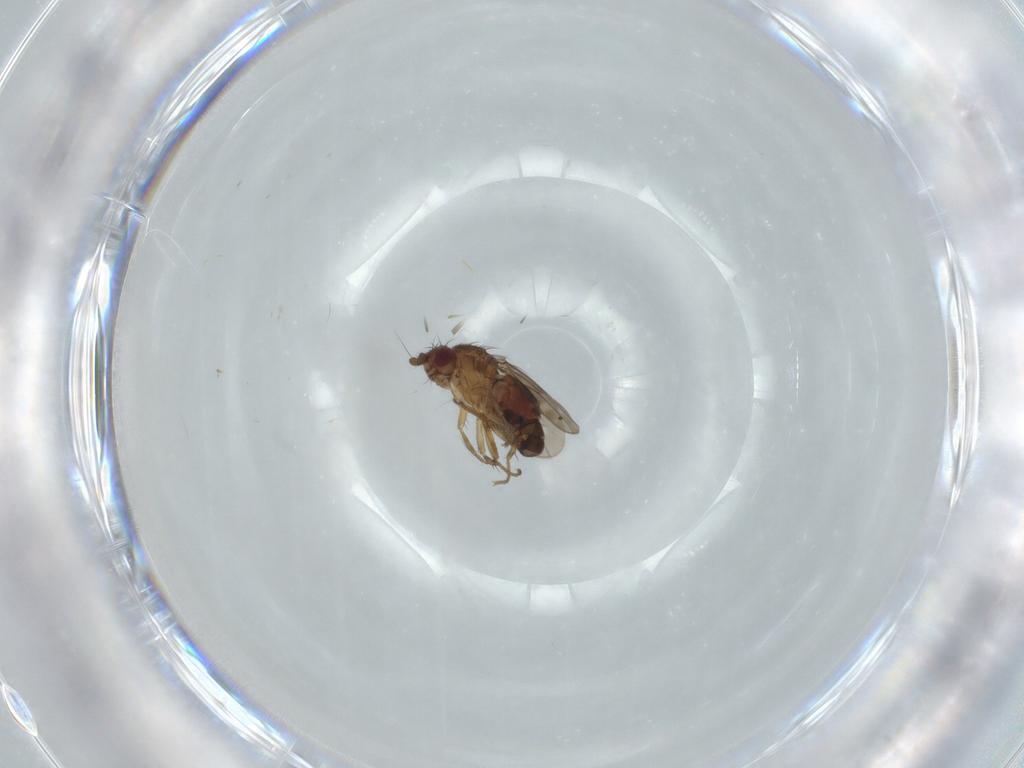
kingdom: Animalia
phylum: Arthropoda
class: Insecta
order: Diptera
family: Sphaeroceridae
